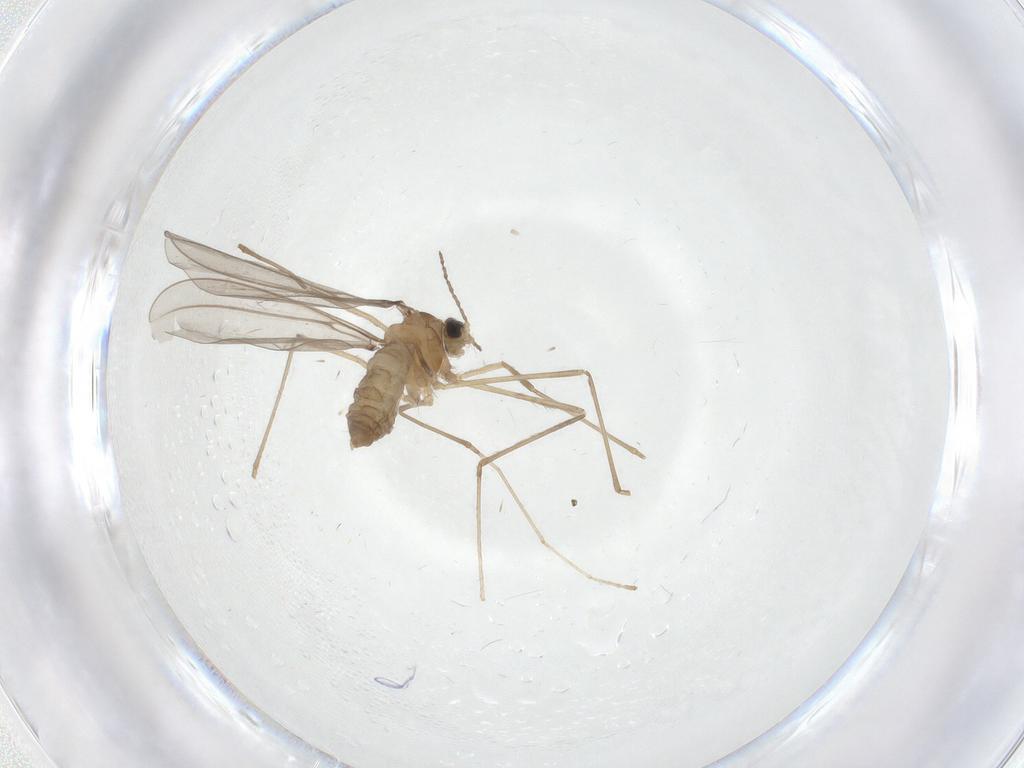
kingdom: Animalia
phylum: Arthropoda
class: Insecta
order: Diptera
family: Cecidomyiidae
